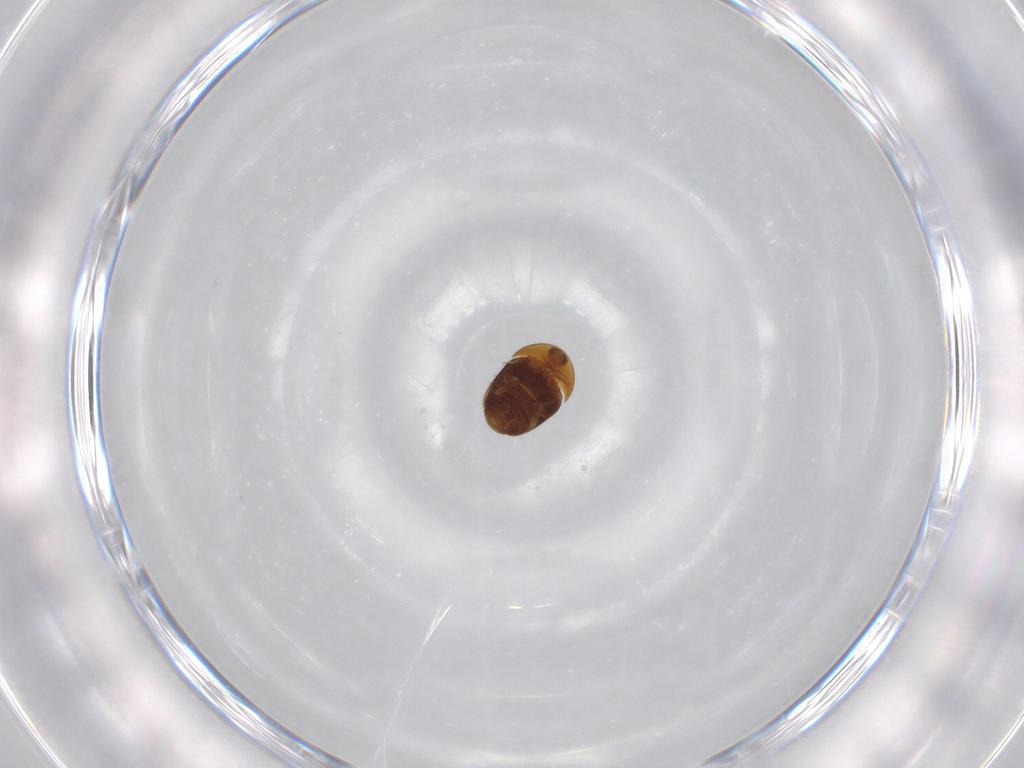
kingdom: Animalia
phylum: Arthropoda
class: Insecta
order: Coleoptera
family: Corylophidae
